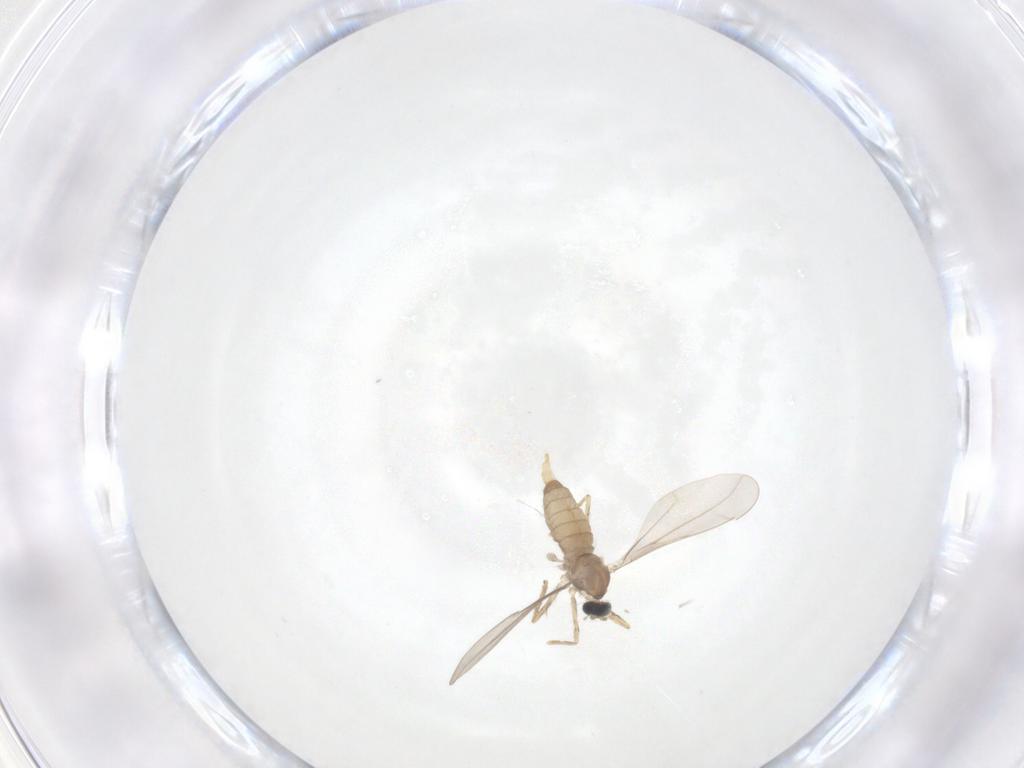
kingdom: Animalia
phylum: Arthropoda
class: Insecta
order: Diptera
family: Cecidomyiidae
